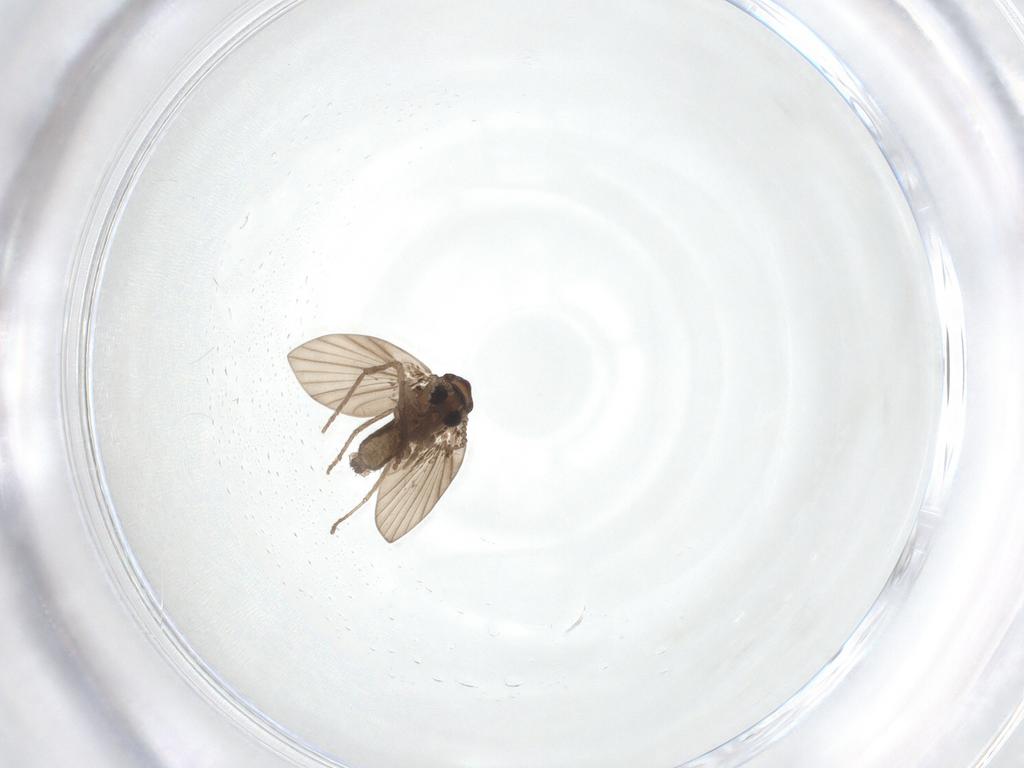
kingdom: Animalia
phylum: Arthropoda
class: Insecta
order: Diptera
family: Psychodidae
